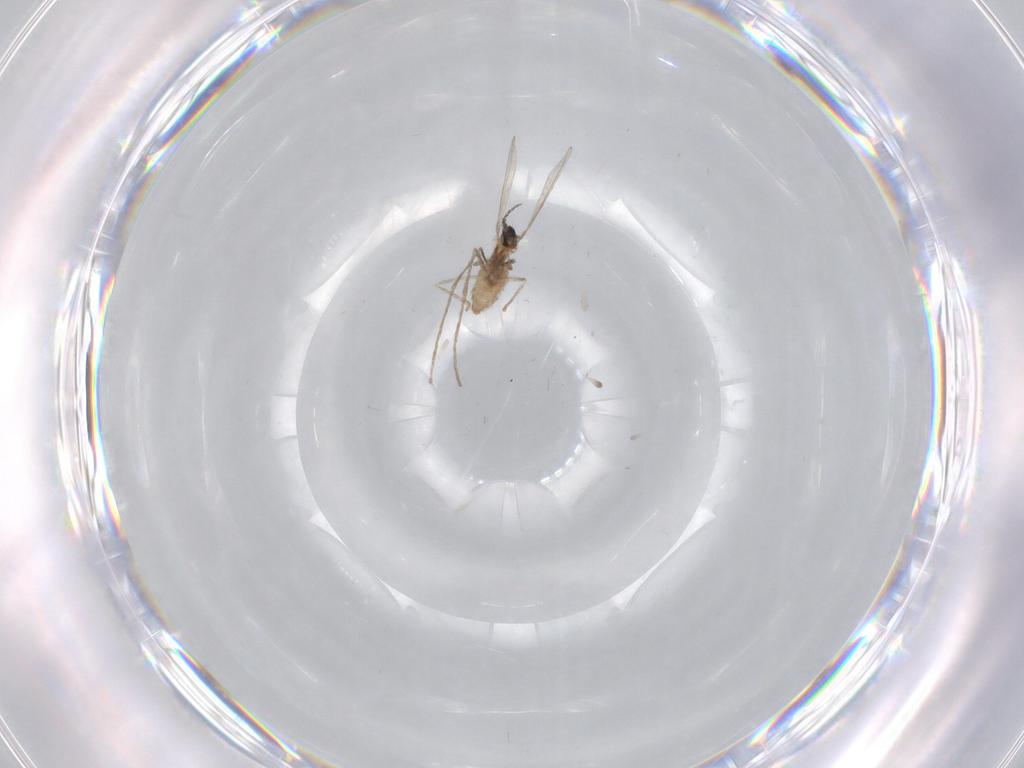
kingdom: Animalia
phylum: Arthropoda
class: Insecta
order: Diptera
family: Cecidomyiidae
